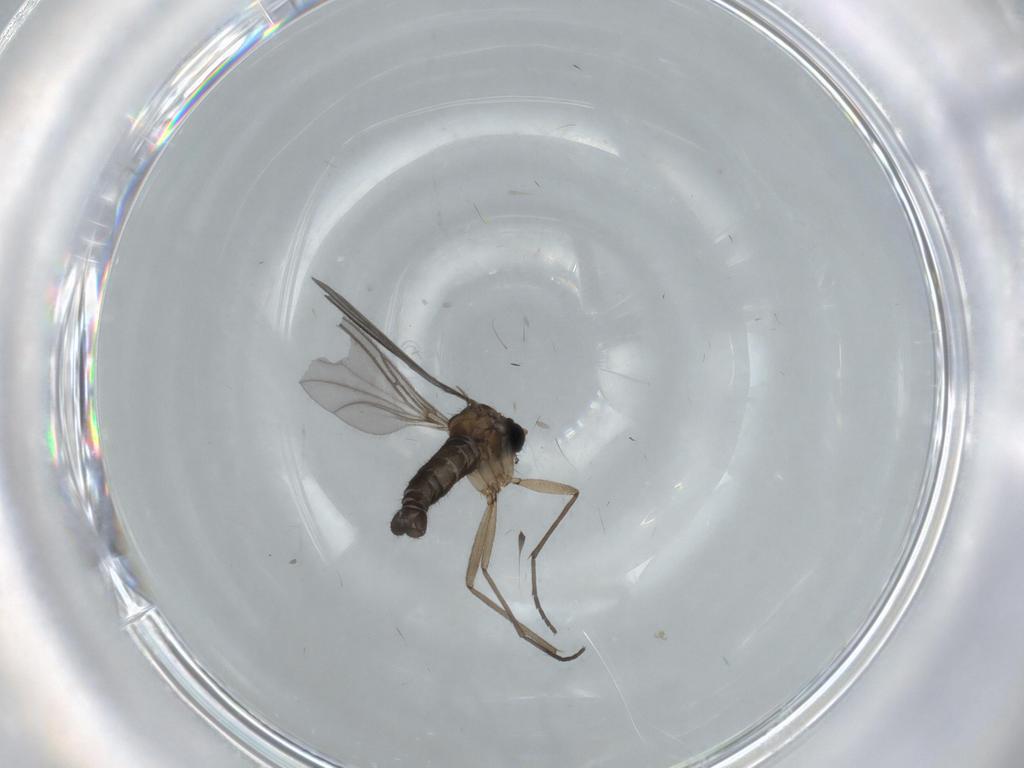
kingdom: Animalia
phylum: Arthropoda
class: Insecta
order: Diptera
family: Sciaridae
